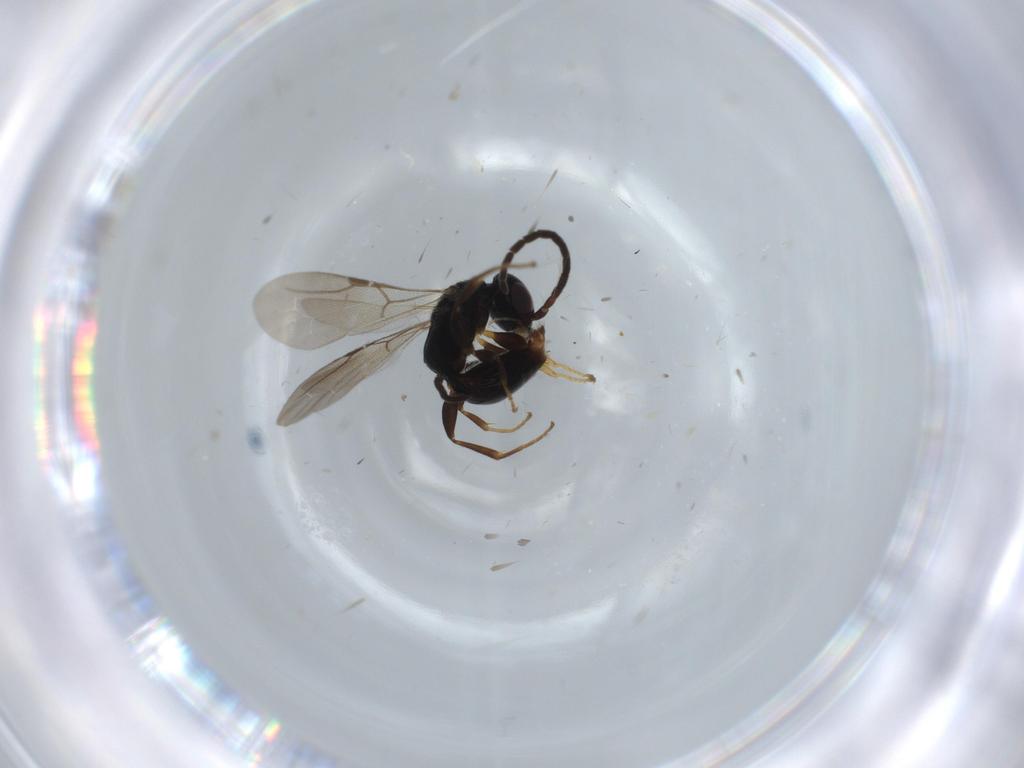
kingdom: Animalia
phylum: Arthropoda
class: Insecta
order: Hymenoptera
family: Bethylidae
